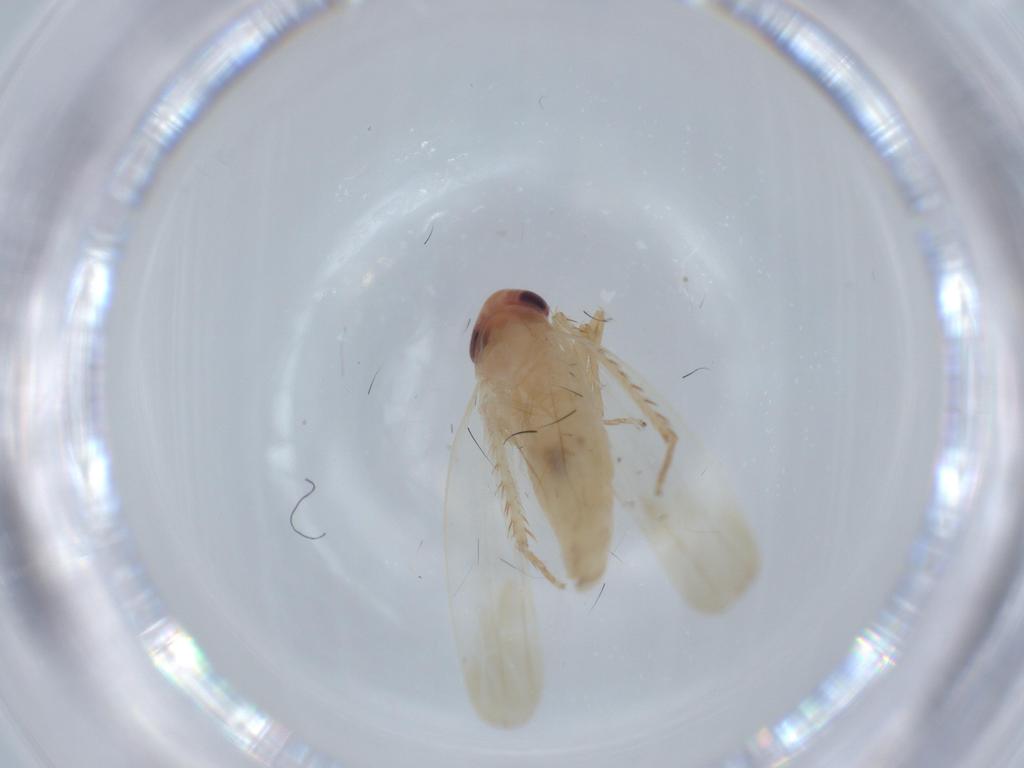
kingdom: Animalia
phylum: Arthropoda
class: Insecta
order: Hemiptera
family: Cicadellidae
